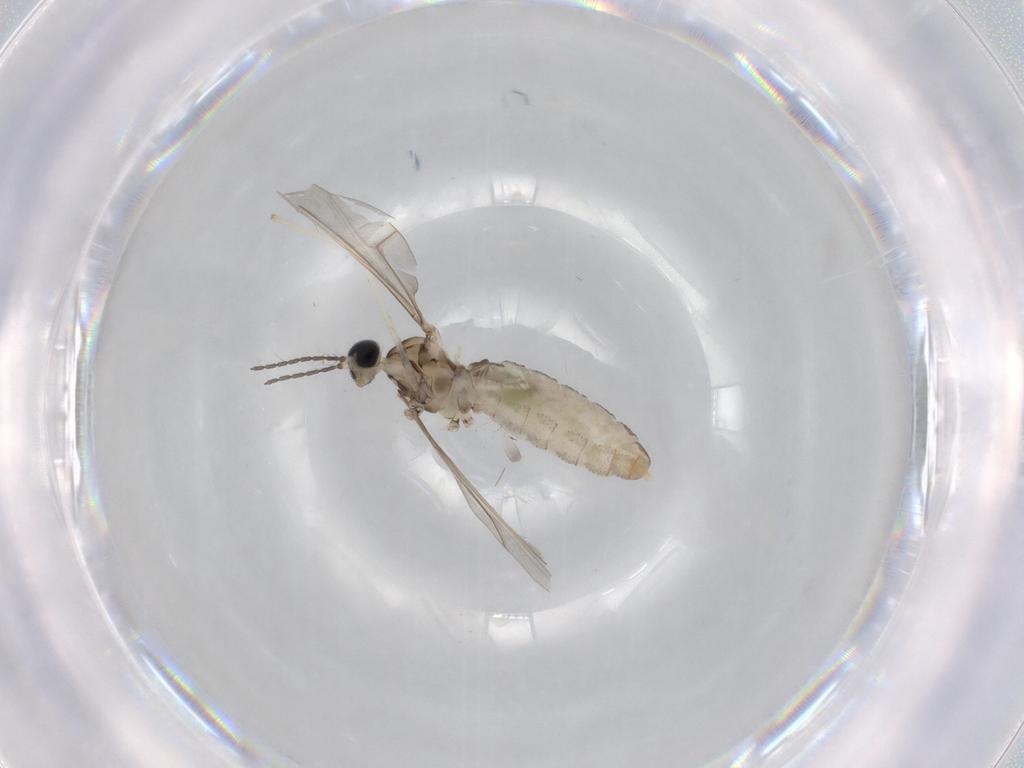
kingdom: Animalia
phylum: Arthropoda
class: Insecta
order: Diptera
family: Cecidomyiidae
